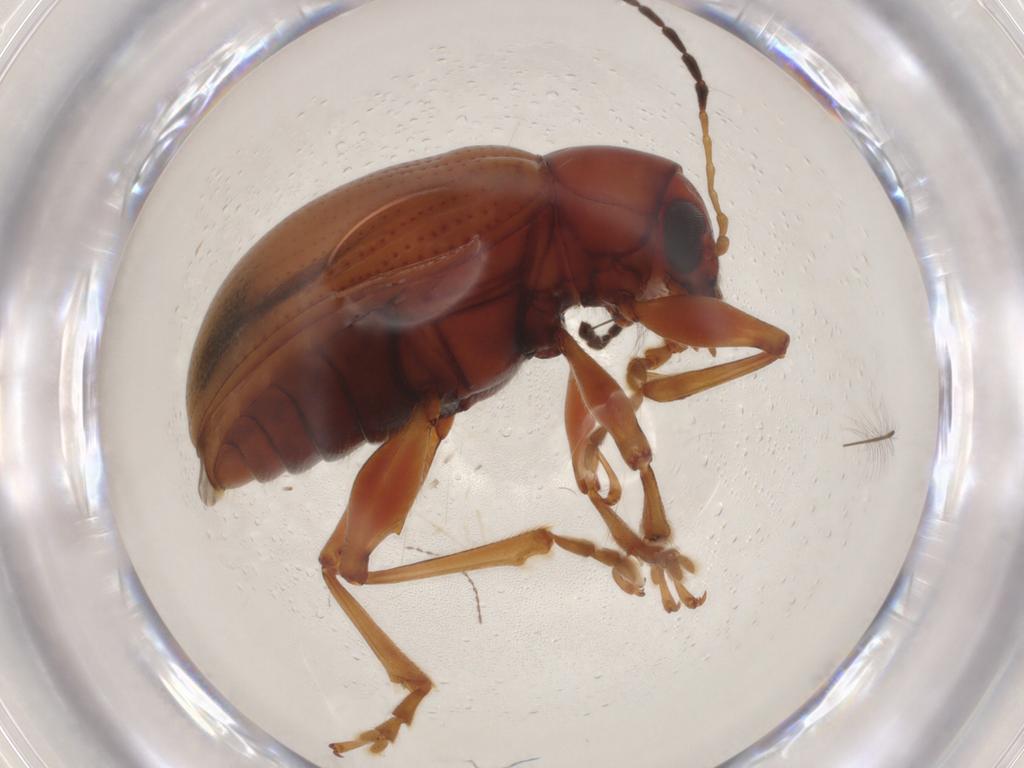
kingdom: Animalia
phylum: Arthropoda
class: Insecta
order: Coleoptera
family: Chrysomelidae
